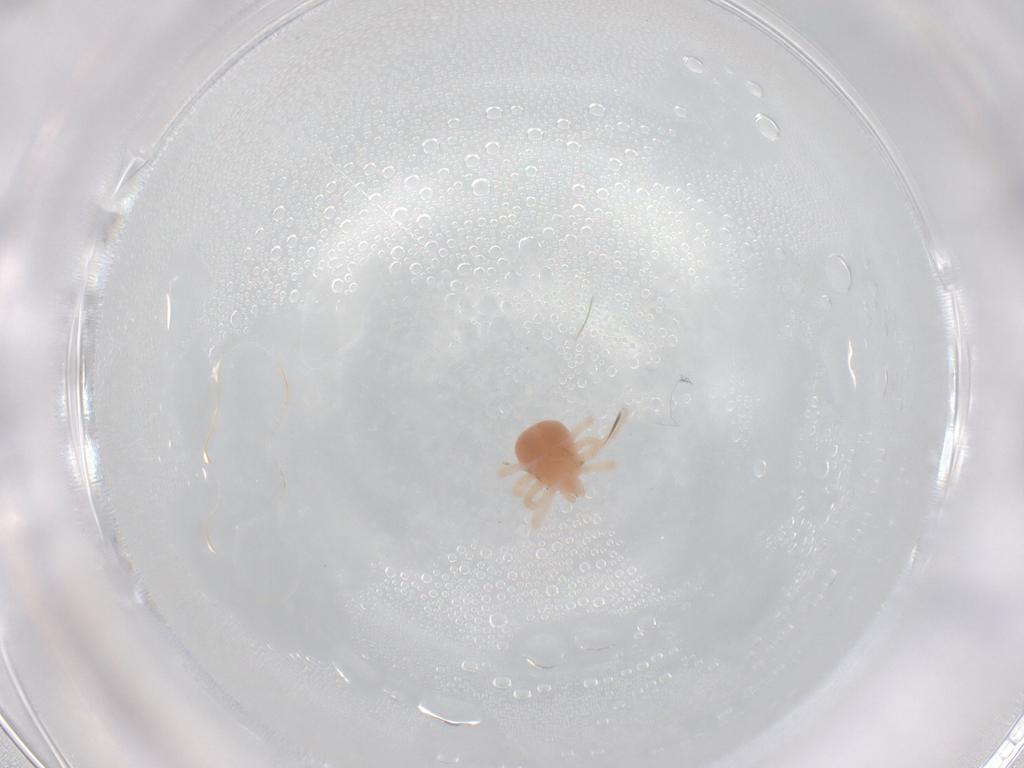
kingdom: Animalia
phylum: Arthropoda
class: Arachnida
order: Trombidiformes
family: Anystidae
